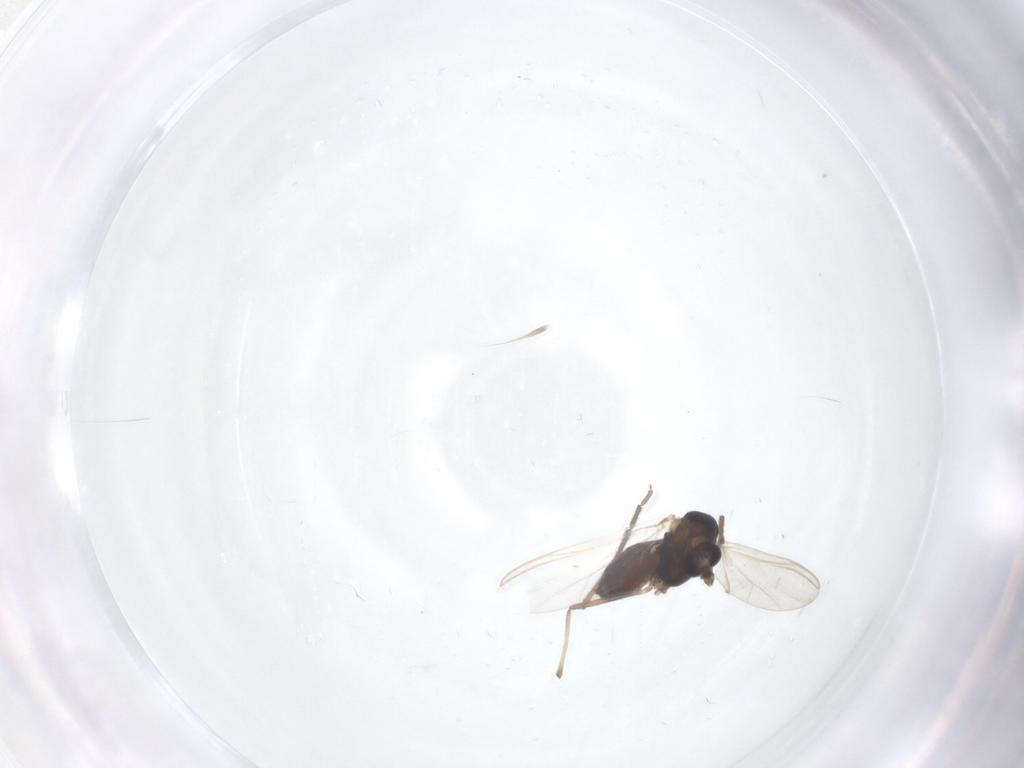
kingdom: Animalia
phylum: Arthropoda
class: Insecta
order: Diptera
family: Chironomidae
